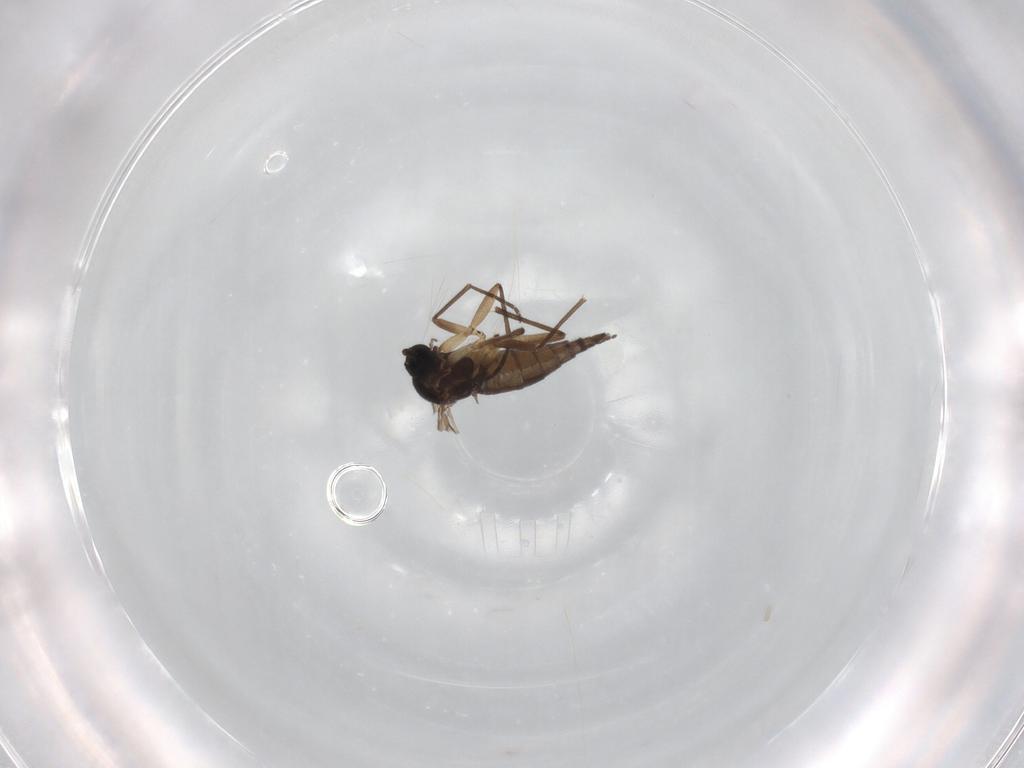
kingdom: Animalia
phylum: Arthropoda
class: Insecta
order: Diptera
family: Sciaridae
